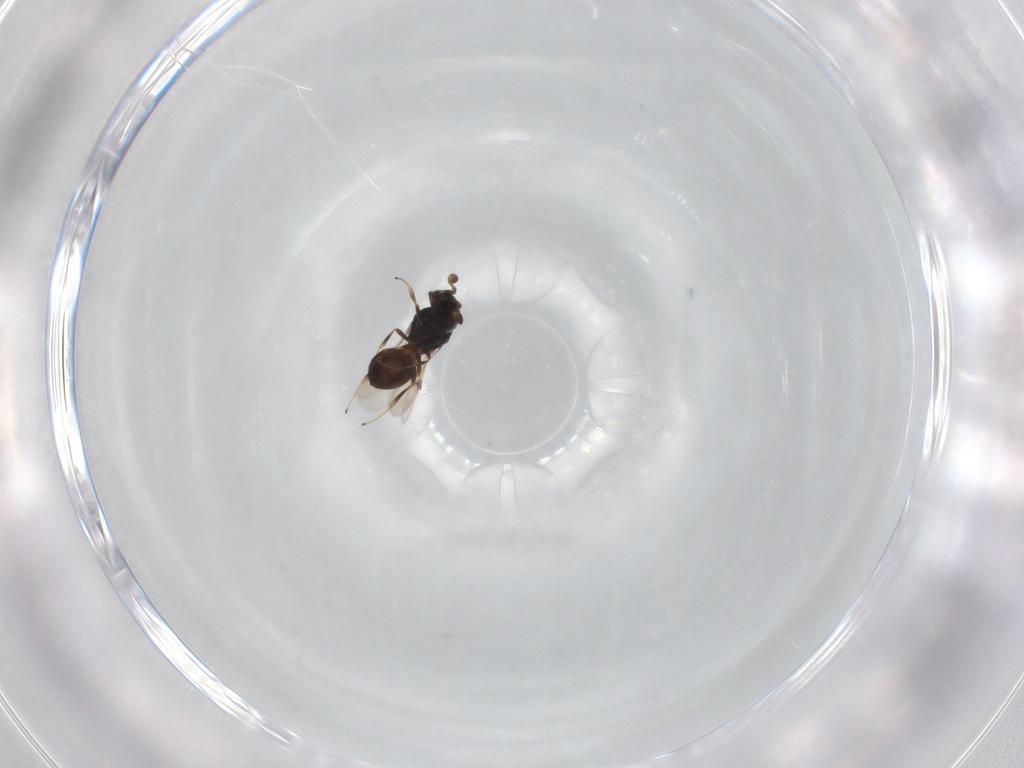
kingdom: Animalia
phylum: Arthropoda
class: Insecta
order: Hymenoptera
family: Scelionidae
